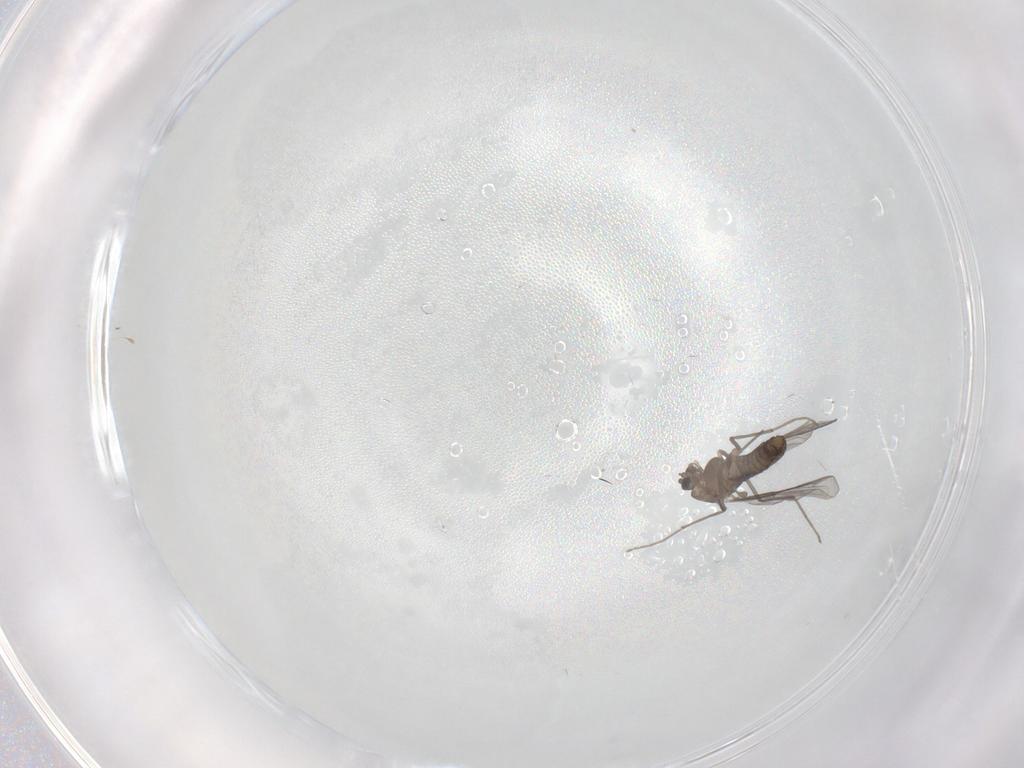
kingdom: Animalia
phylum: Arthropoda
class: Insecta
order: Diptera
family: Chironomidae
